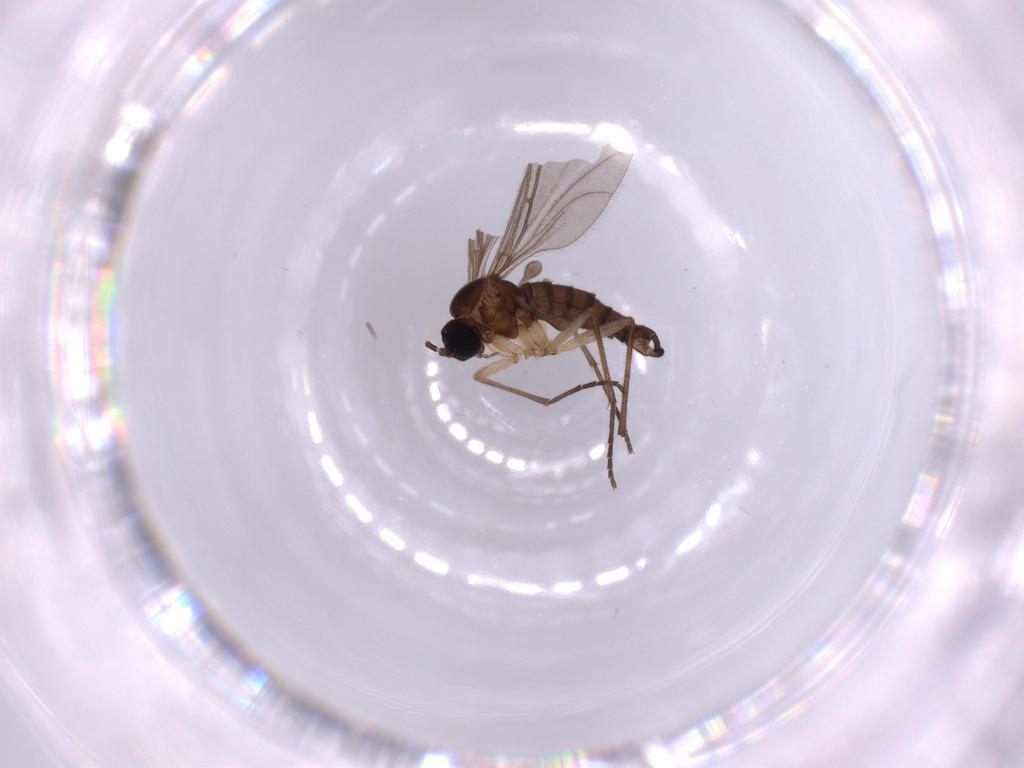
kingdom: Animalia
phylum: Arthropoda
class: Insecta
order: Diptera
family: Sciaridae
